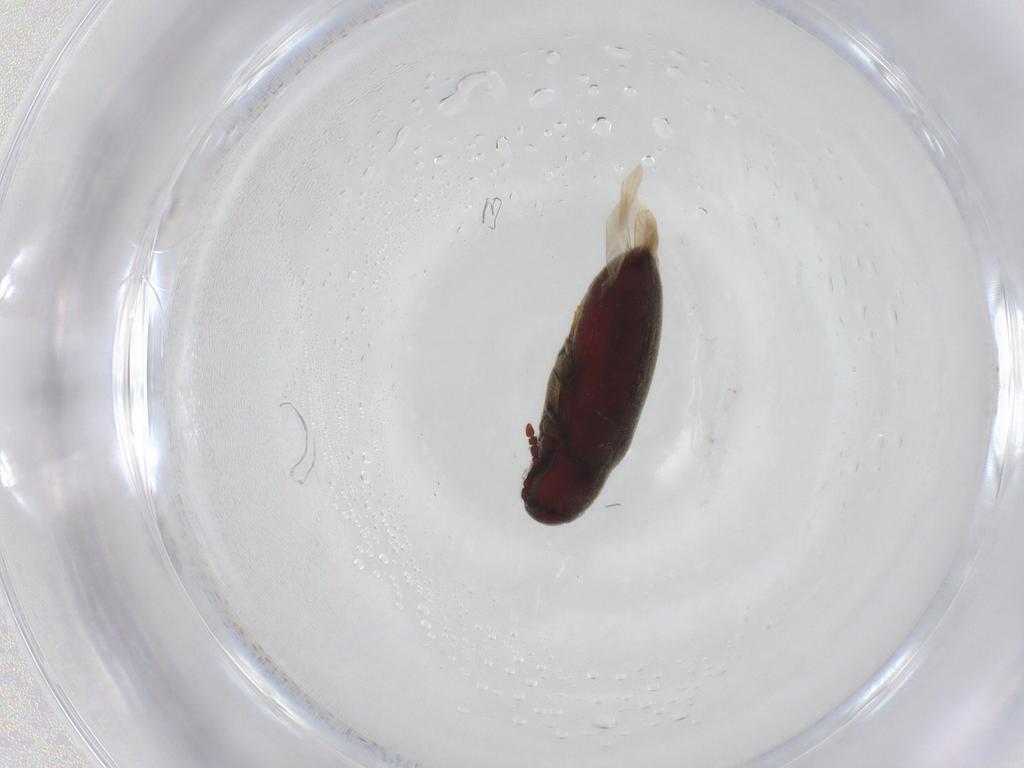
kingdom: Animalia
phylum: Arthropoda
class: Insecta
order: Coleoptera
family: Throscidae
